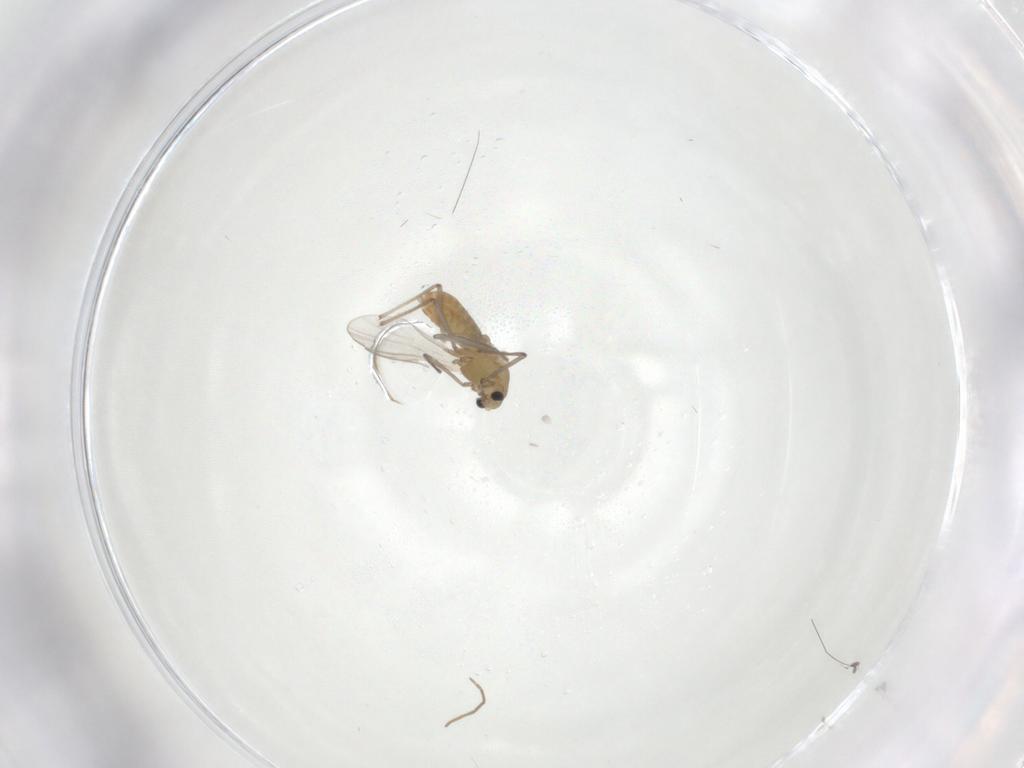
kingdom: Animalia
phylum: Arthropoda
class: Insecta
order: Diptera
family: Chironomidae
